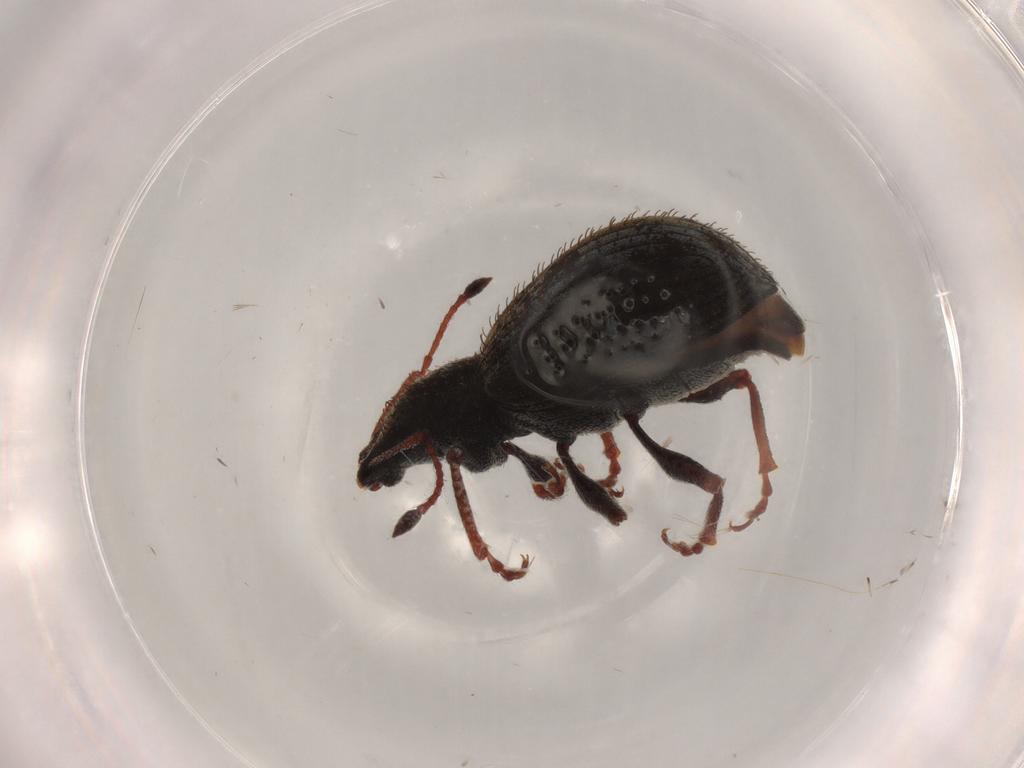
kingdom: Animalia
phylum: Arthropoda
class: Insecta
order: Coleoptera
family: Curculionidae
